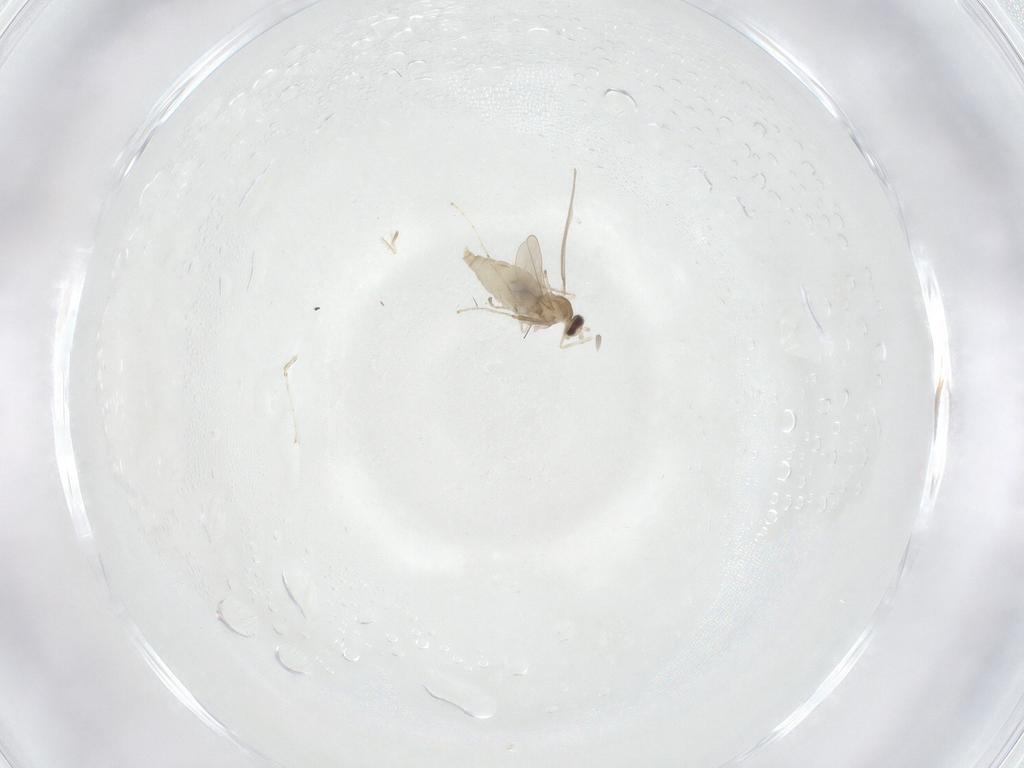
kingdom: Animalia
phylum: Arthropoda
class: Insecta
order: Diptera
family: Cecidomyiidae
